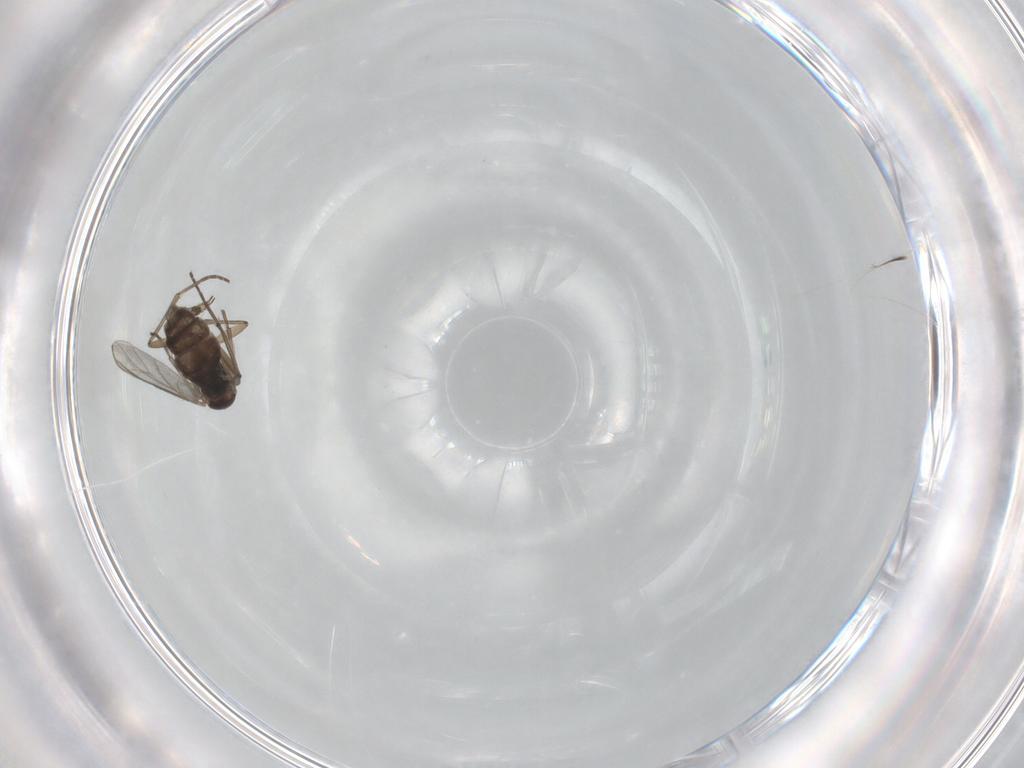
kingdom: Animalia
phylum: Arthropoda
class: Insecta
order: Diptera
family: Sciaridae
